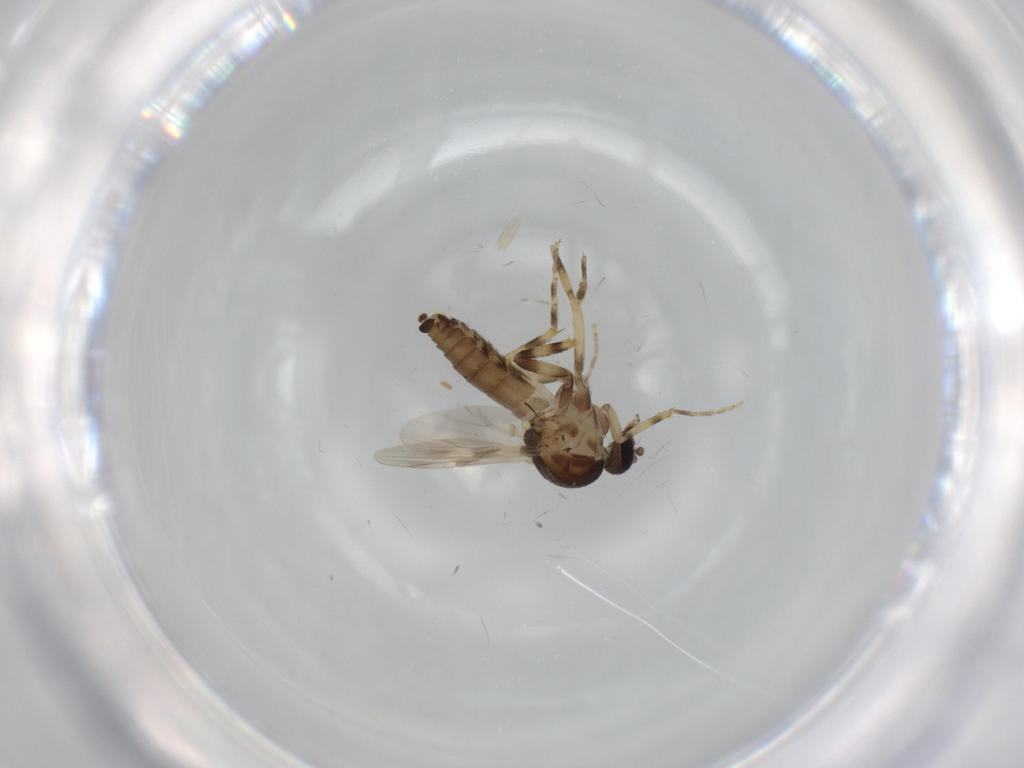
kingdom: Animalia
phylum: Arthropoda
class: Insecta
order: Diptera
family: Ceratopogonidae
